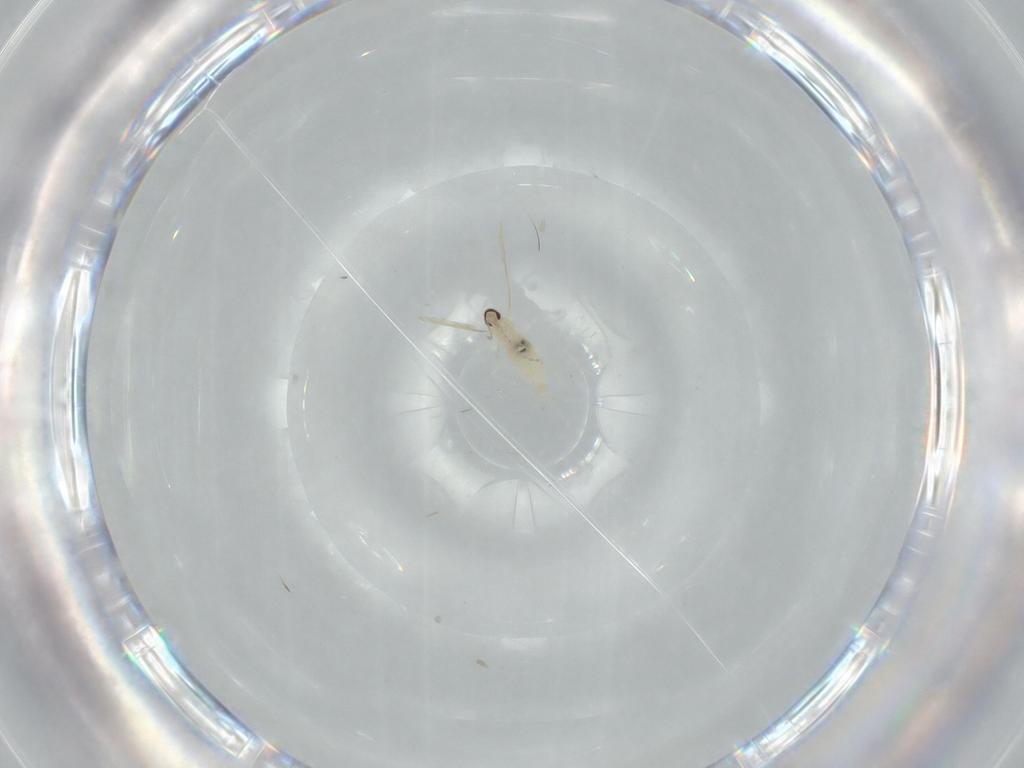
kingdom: Animalia
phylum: Arthropoda
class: Insecta
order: Diptera
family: Cecidomyiidae
